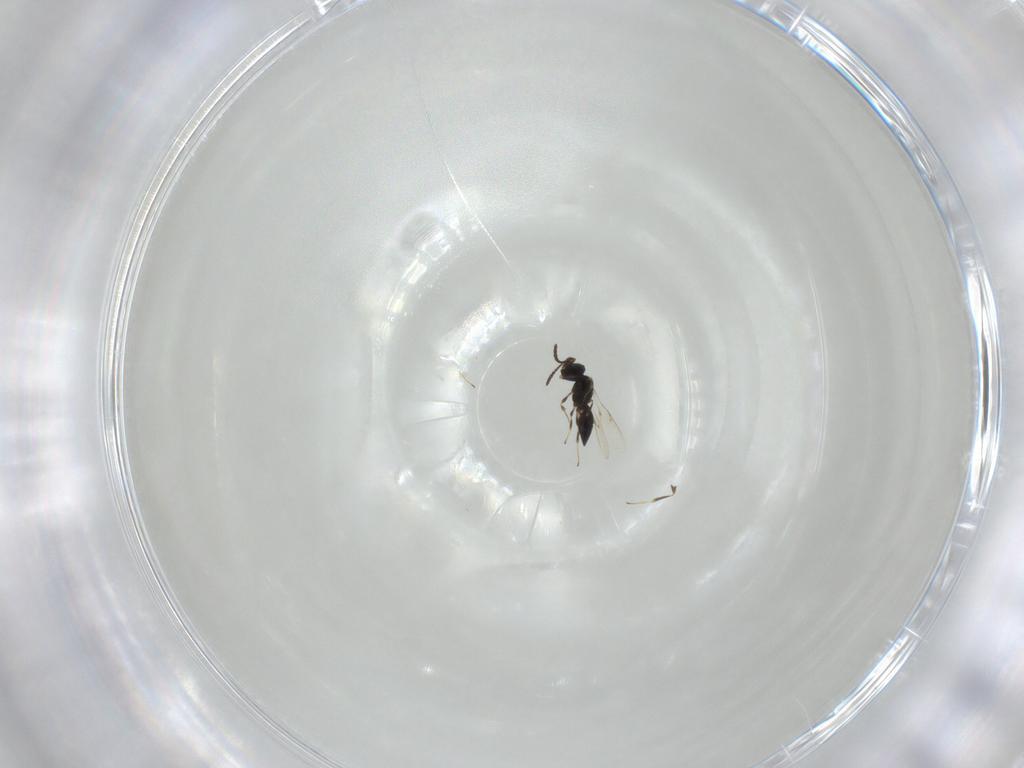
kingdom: Animalia
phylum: Arthropoda
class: Insecta
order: Hymenoptera
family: Scelionidae
